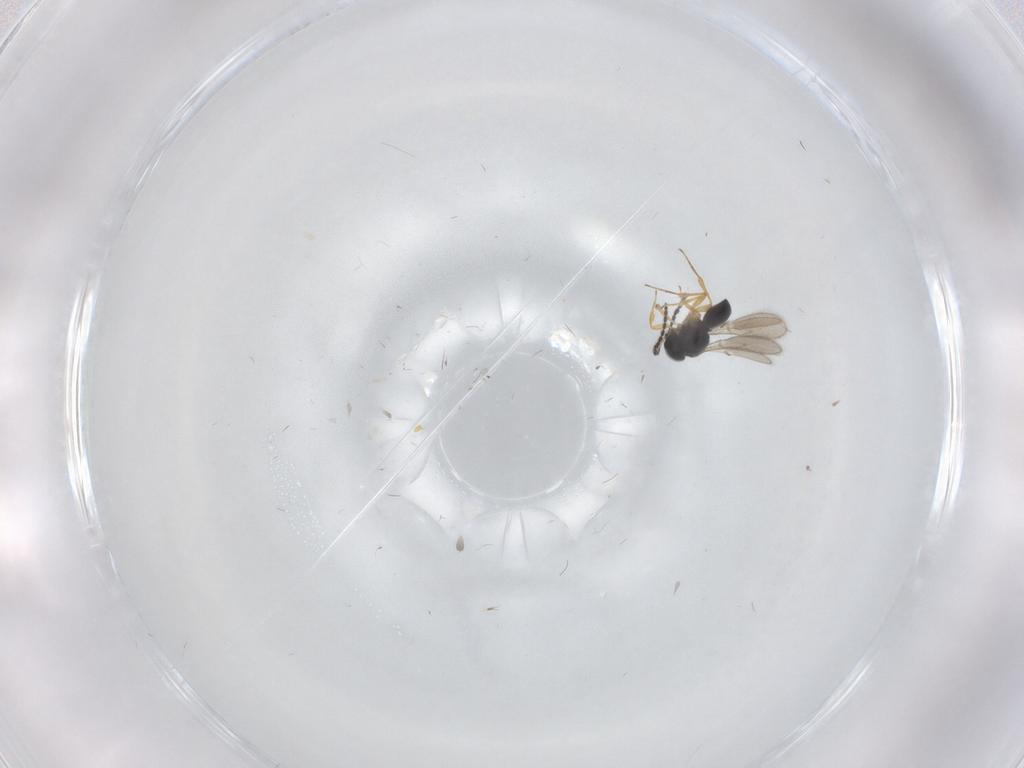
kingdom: Animalia
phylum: Arthropoda
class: Insecta
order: Hymenoptera
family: Scelionidae
